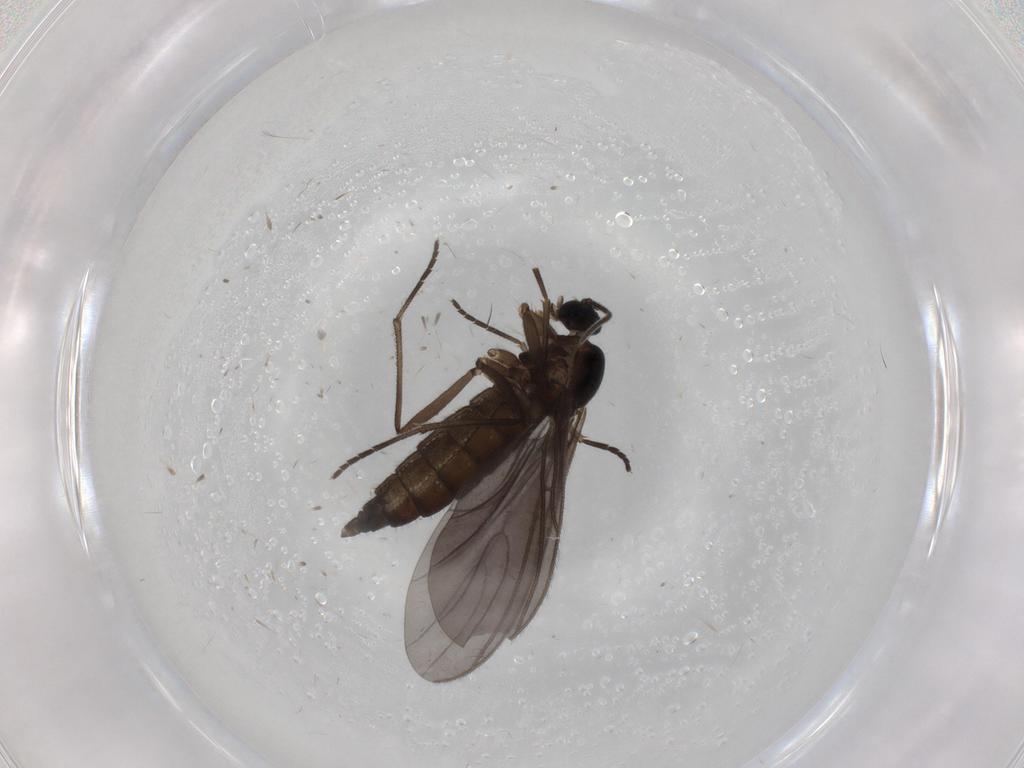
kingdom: Animalia
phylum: Arthropoda
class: Insecta
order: Diptera
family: Sciaridae
